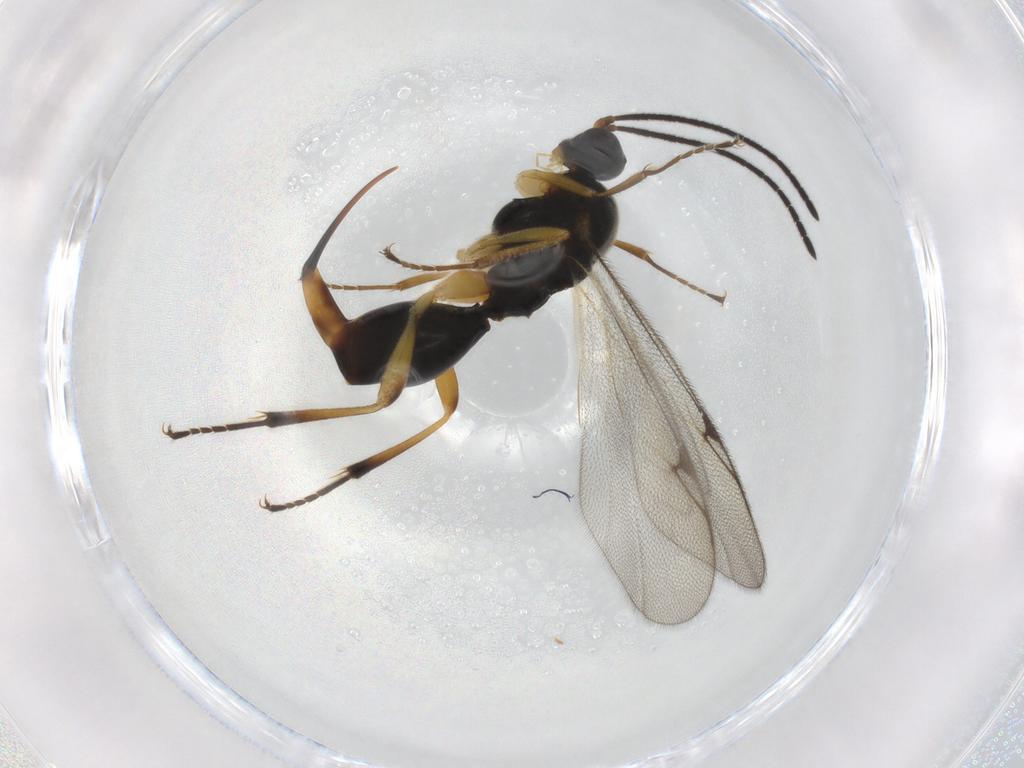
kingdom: Animalia
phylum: Arthropoda
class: Insecta
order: Hymenoptera
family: Proctotrupidae
